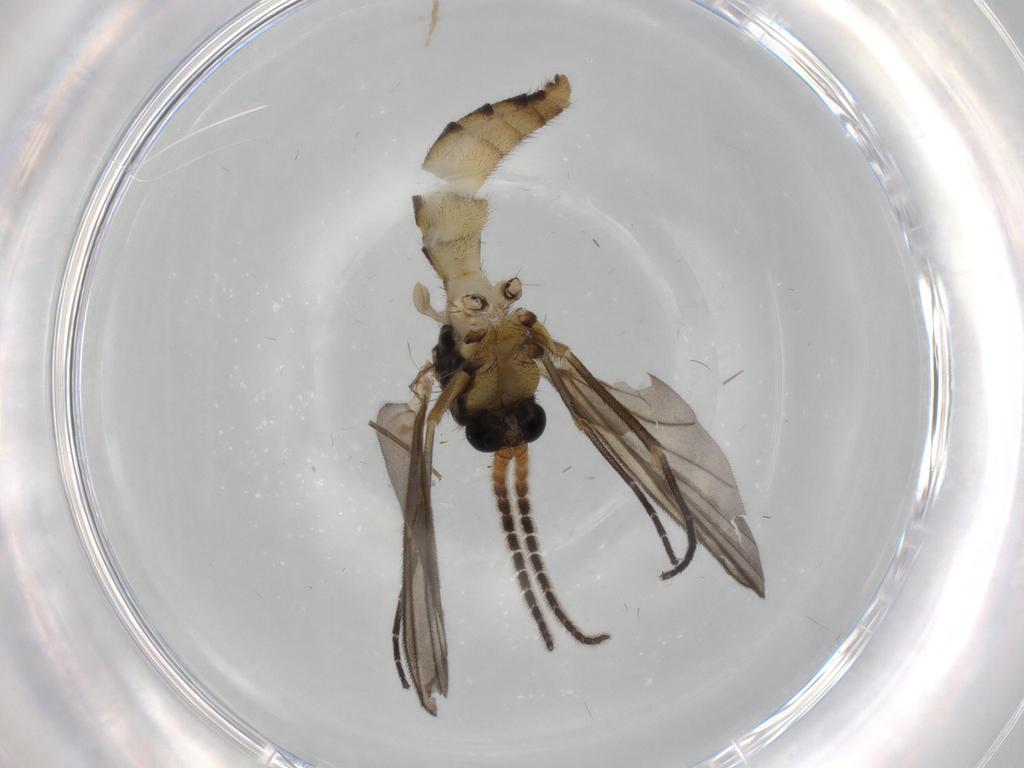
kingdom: Animalia
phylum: Arthropoda
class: Insecta
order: Diptera
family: Hybotidae
